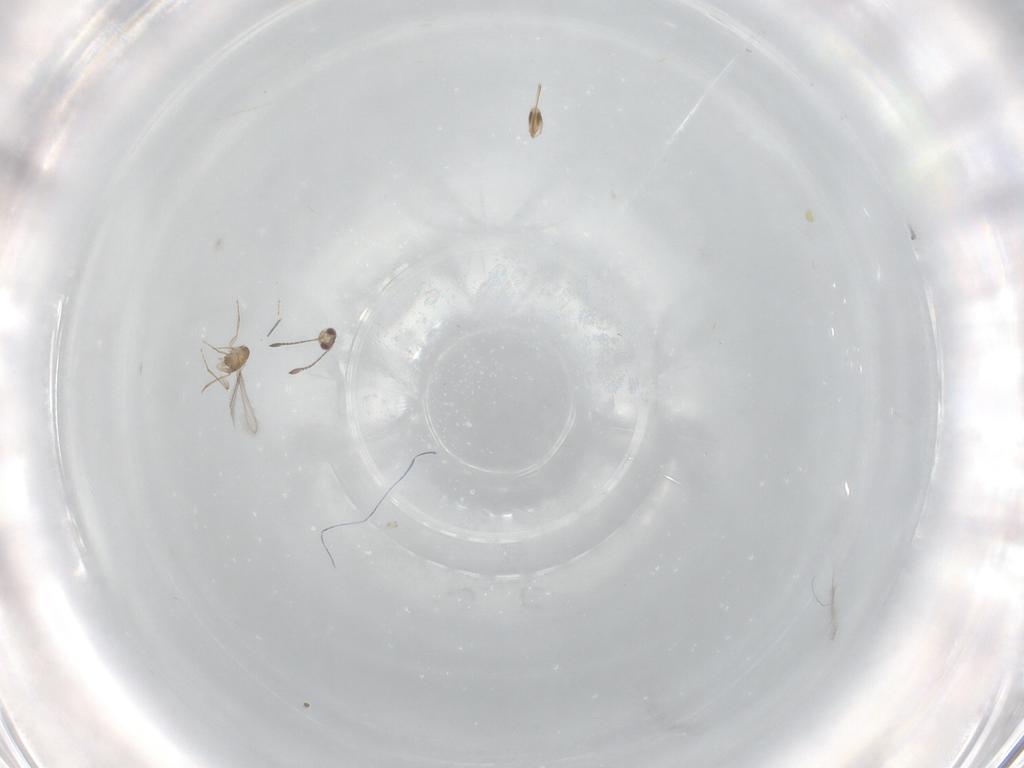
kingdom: Animalia
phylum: Arthropoda
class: Insecta
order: Hymenoptera
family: Mymaridae
